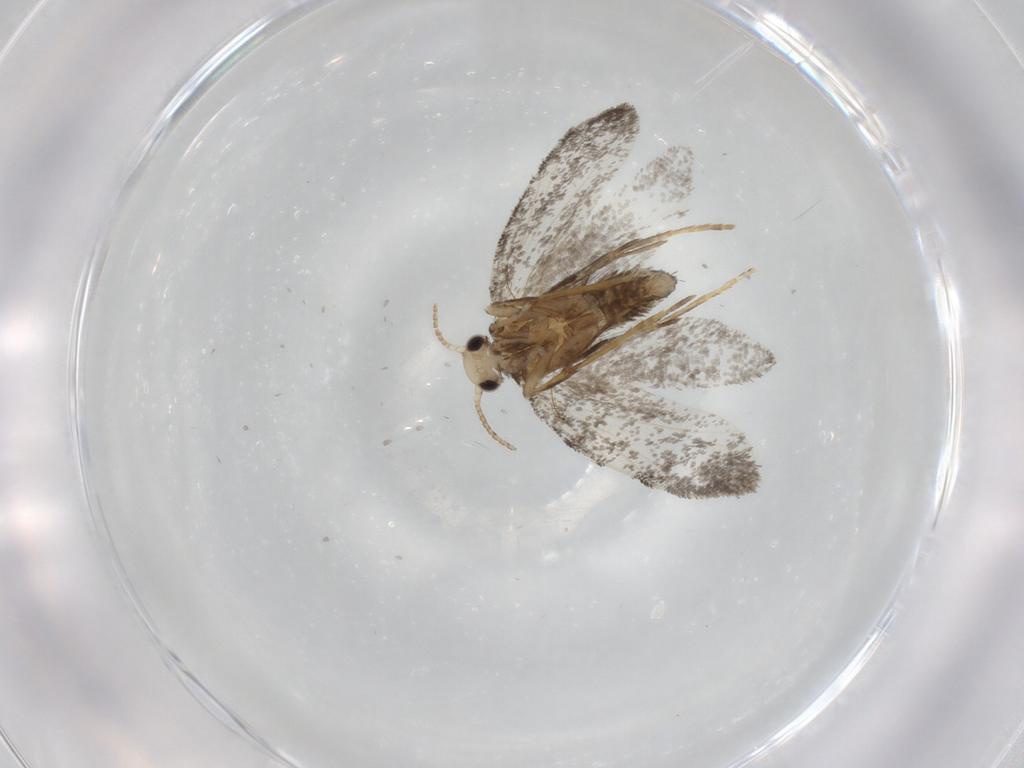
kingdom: Animalia
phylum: Arthropoda
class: Insecta
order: Lepidoptera
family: Psychidae
